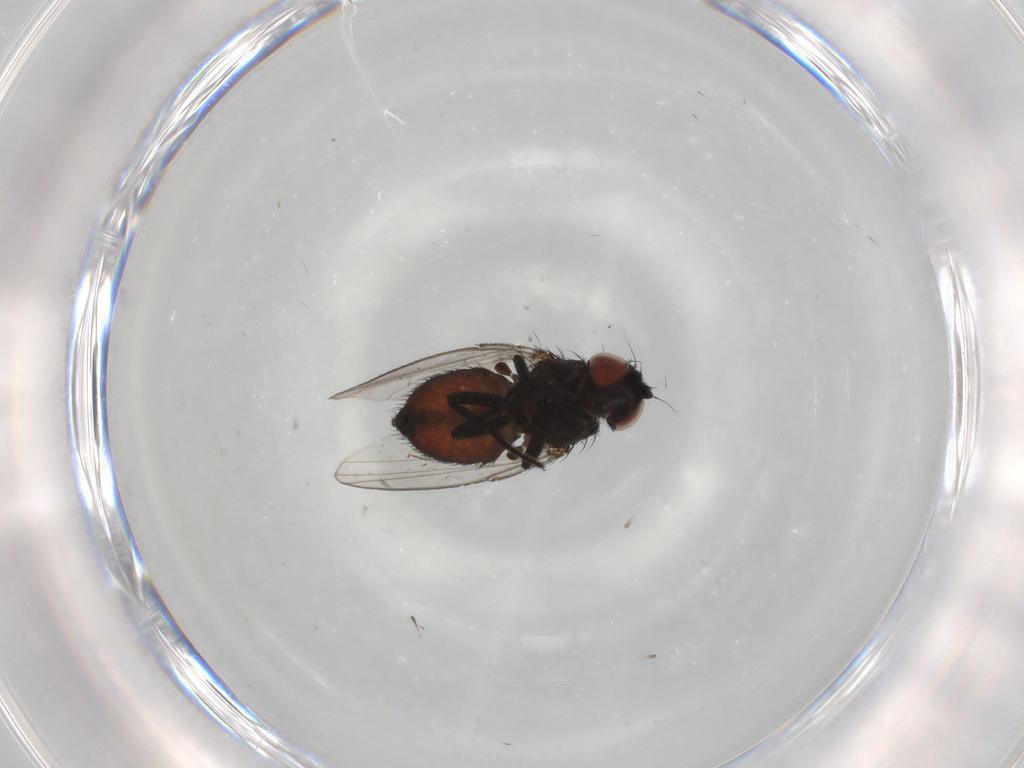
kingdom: Animalia
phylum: Arthropoda
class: Insecta
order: Diptera
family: Milichiidae
